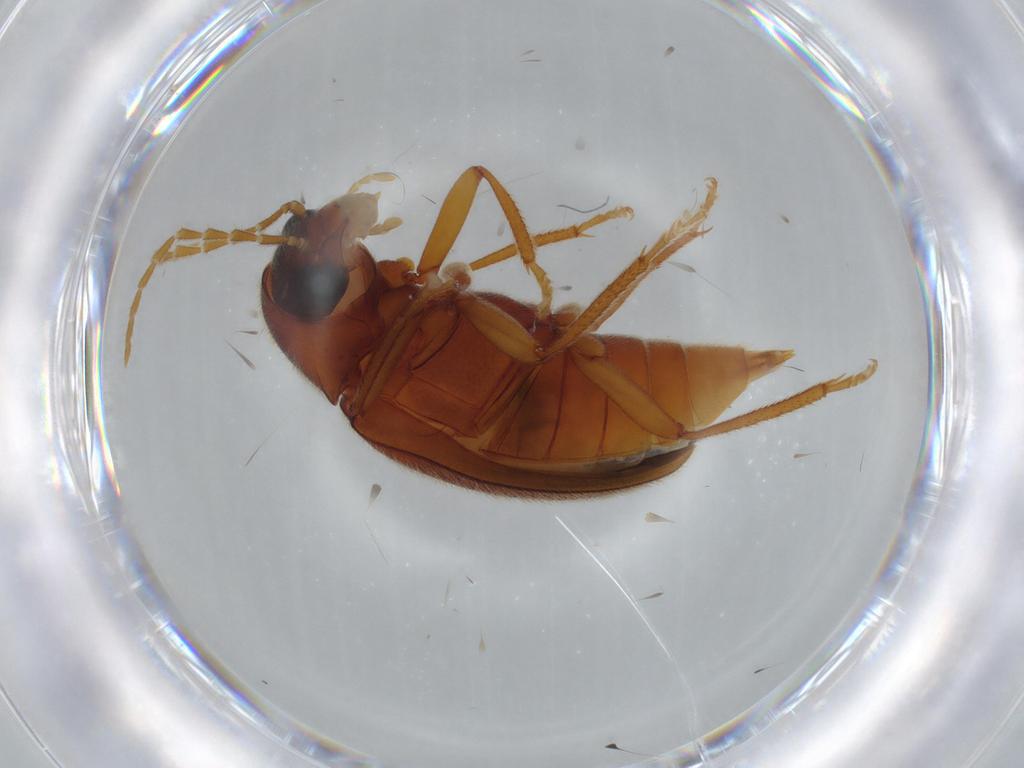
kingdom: Animalia
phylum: Arthropoda
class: Insecta
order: Coleoptera
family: Ptilodactylidae
